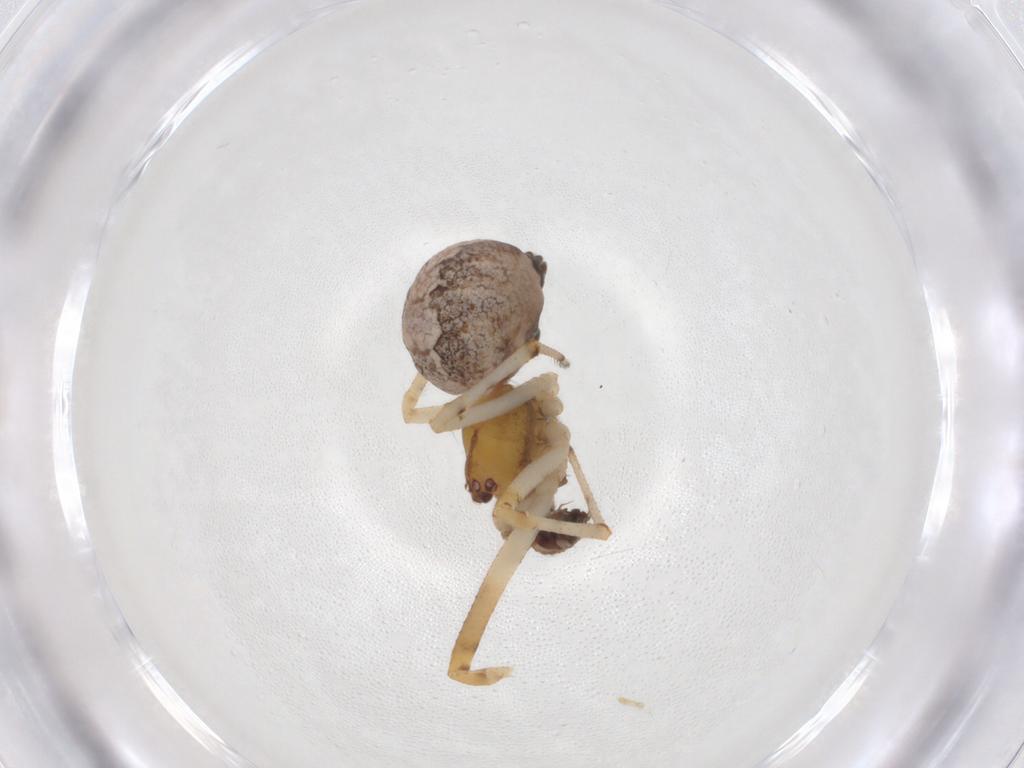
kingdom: Animalia
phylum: Arthropoda
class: Arachnida
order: Araneae
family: Theridiidae
